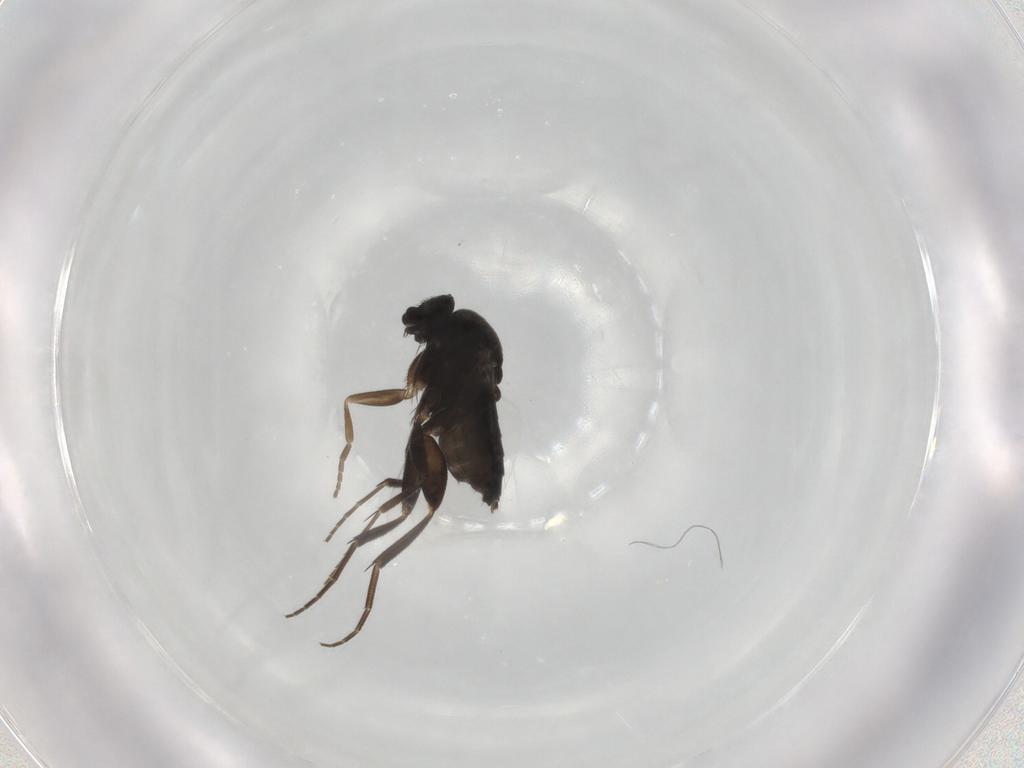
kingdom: Animalia
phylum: Arthropoda
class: Insecta
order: Diptera
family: Phoridae
